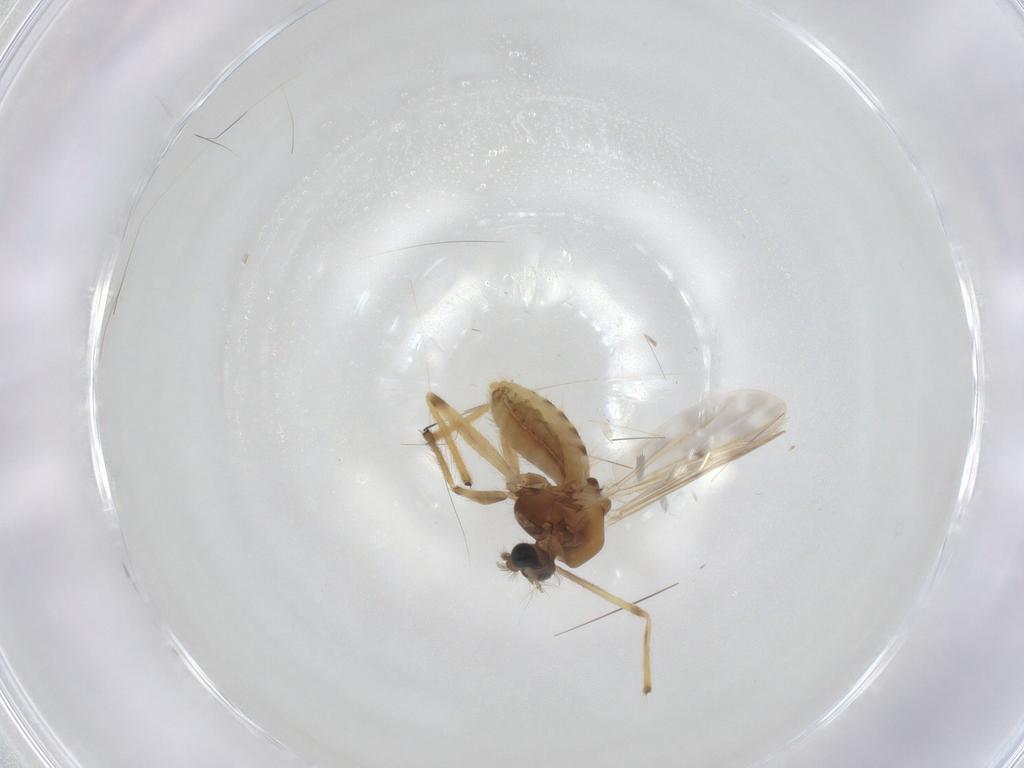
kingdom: Animalia
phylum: Arthropoda
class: Insecta
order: Diptera
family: Chironomidae
